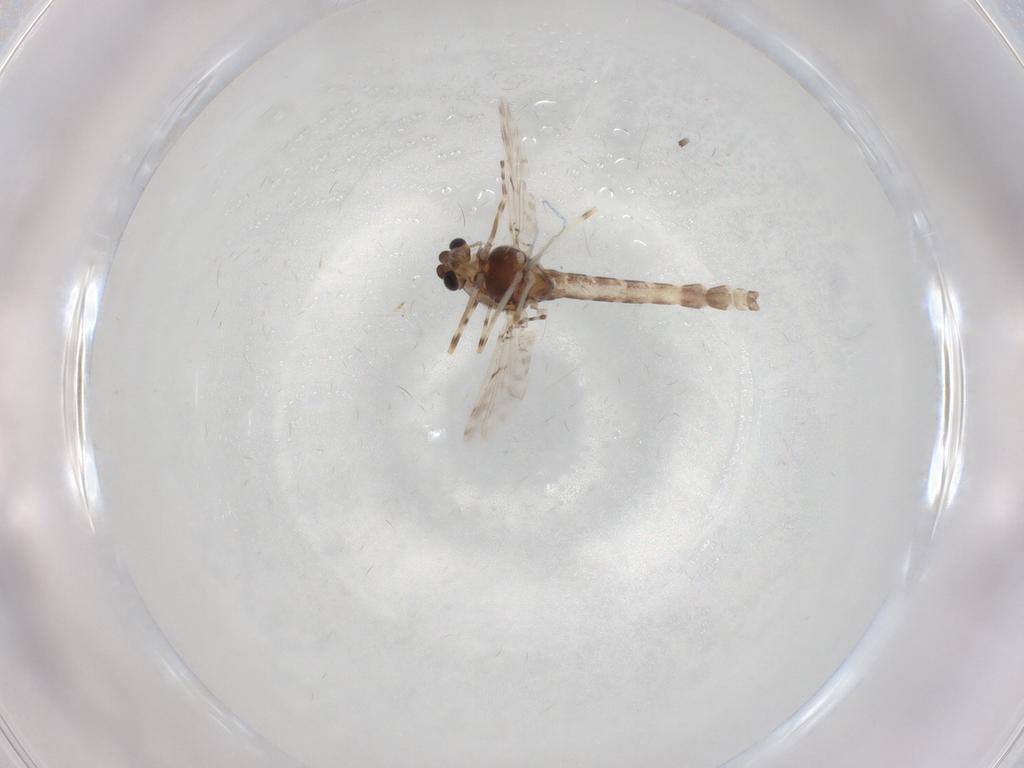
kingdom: Animalia
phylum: Arthropoda
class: Insecta
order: Diptera
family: Chironomidae
